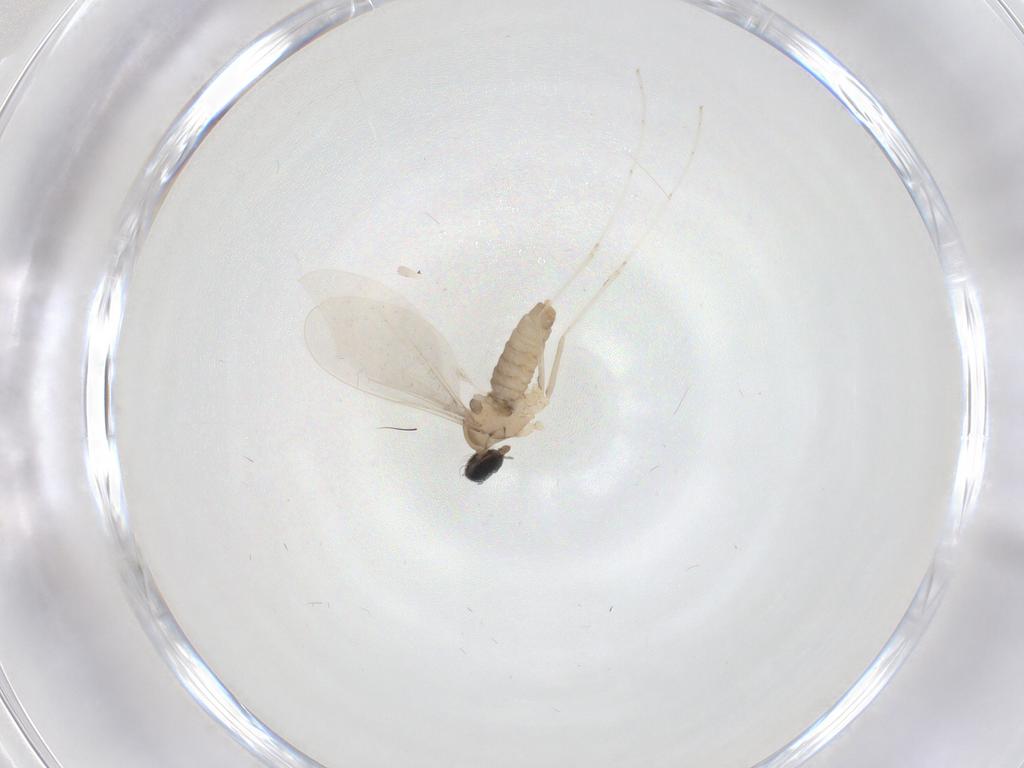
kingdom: Animalia
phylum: Arthropoda
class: Insecta
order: Diptera
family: Cecidomyiidae
